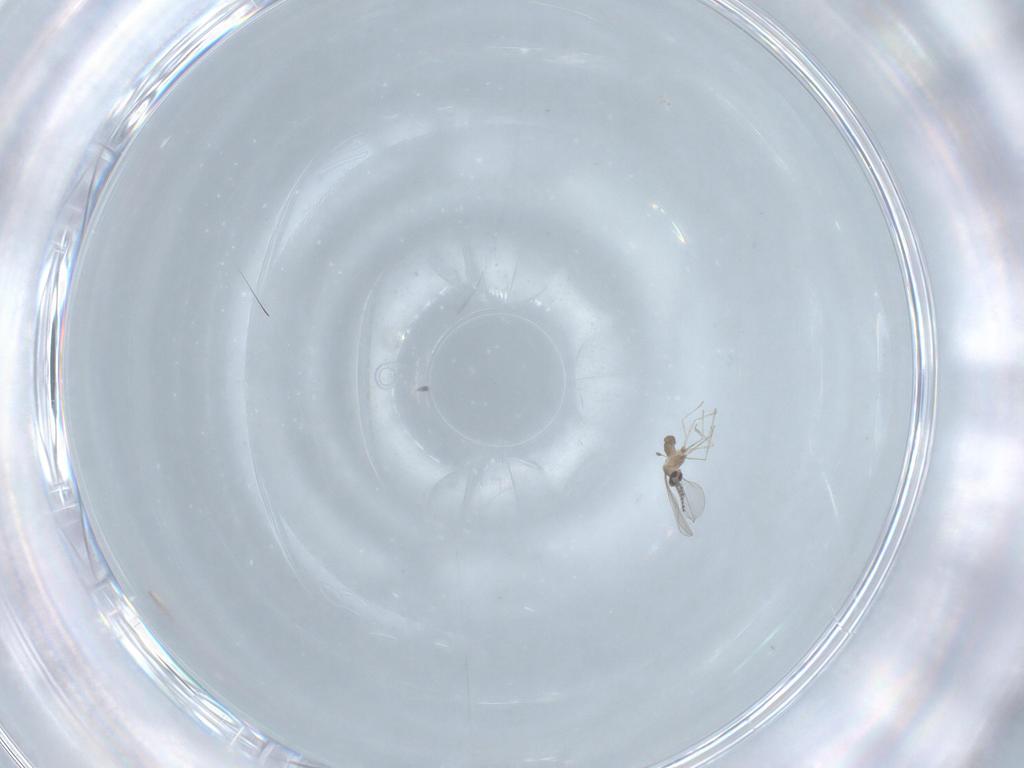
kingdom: Animalia
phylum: Arthropoda
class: Insecta
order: Diptera
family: Cecidomyiidae
